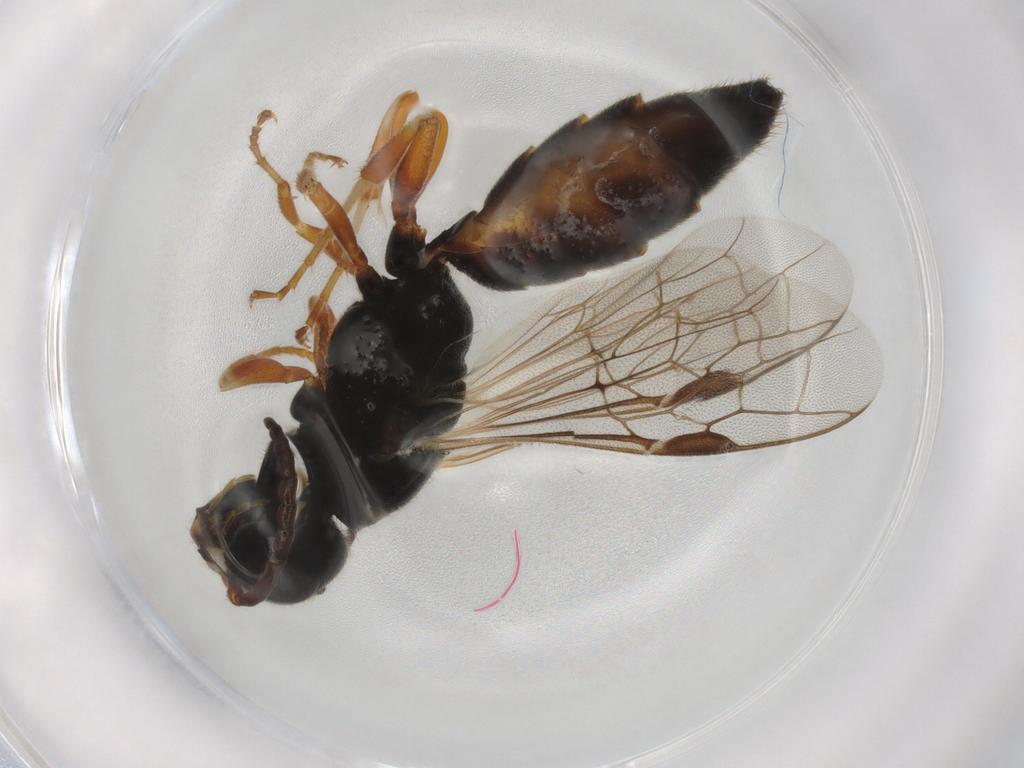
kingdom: Animalia
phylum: Arthropoda
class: Insecta
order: Hymenoptera
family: Thynnidae
